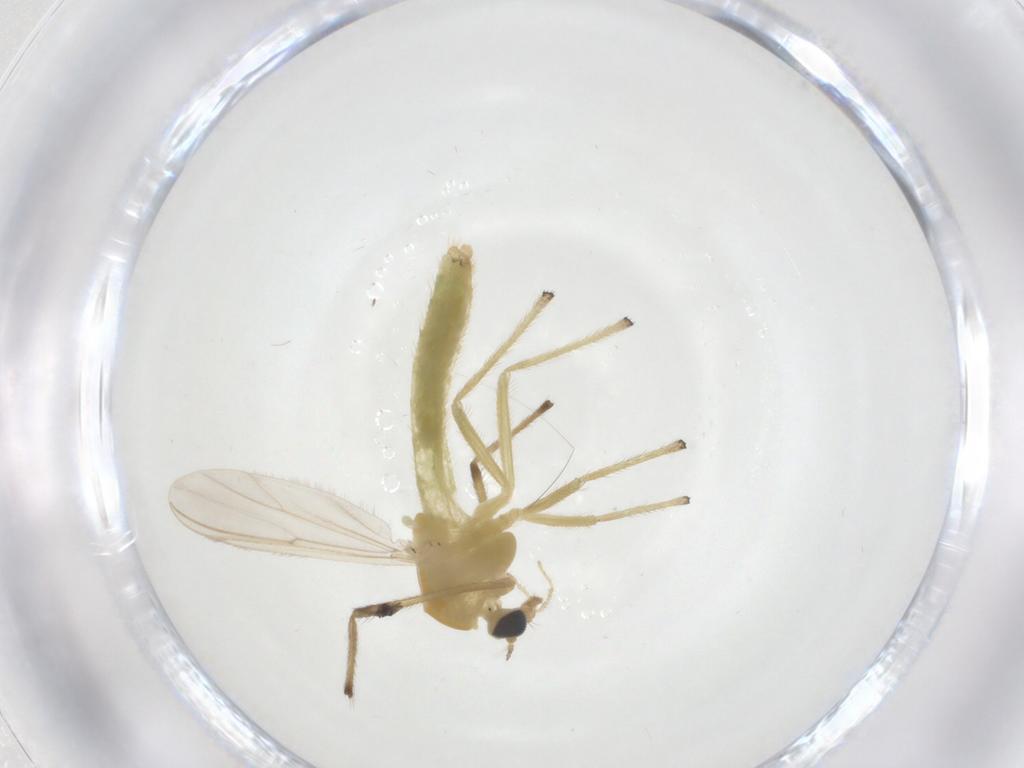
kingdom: Animalia
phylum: Arthropoda
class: Insecta
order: Diptera
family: Chironomidae
